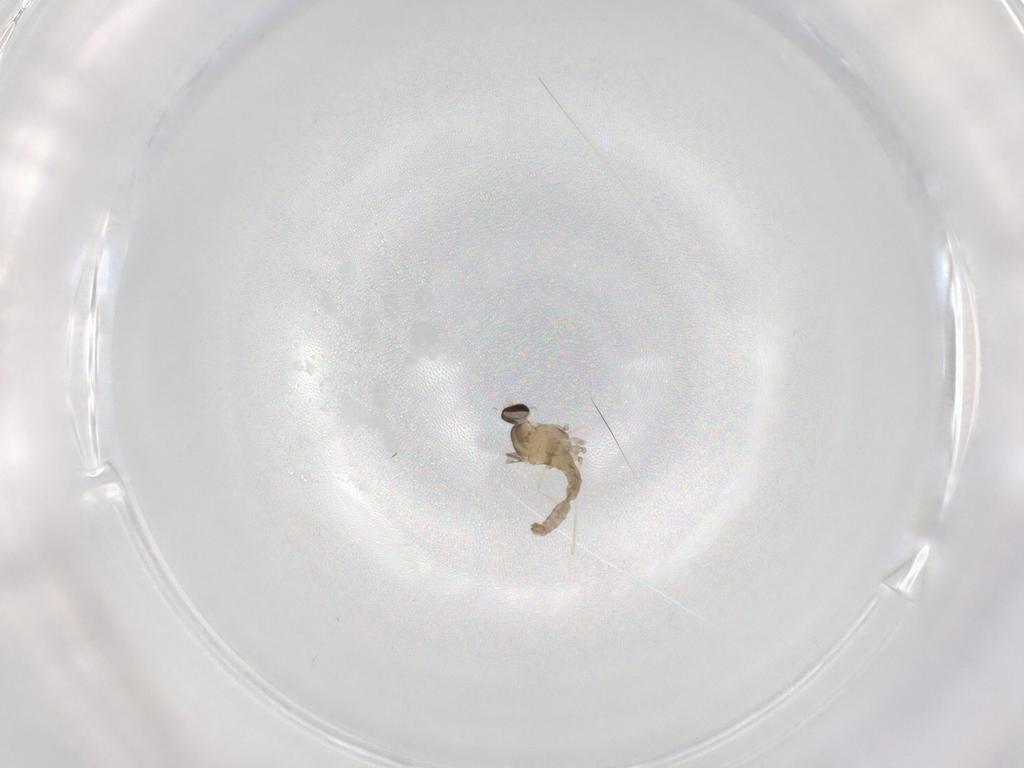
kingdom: Animalia
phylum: Arthropoda
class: Insecta
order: Diptera
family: Cecidomyiidae
